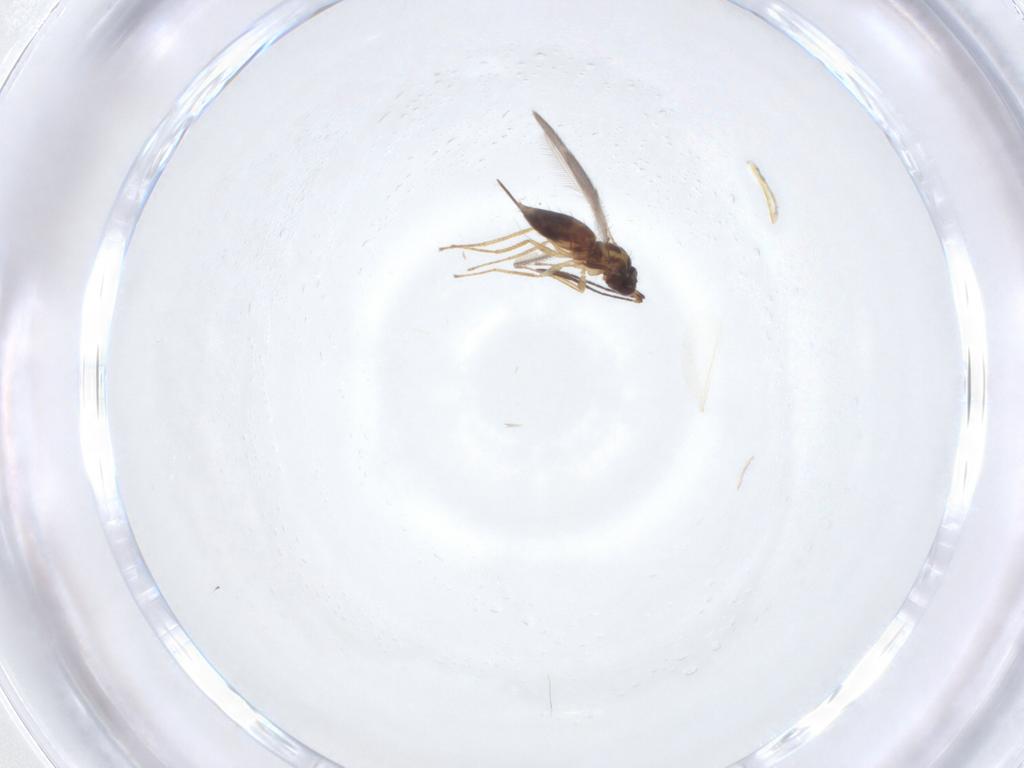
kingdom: Animalia
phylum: Arthropoda
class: Insecta
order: Diptera
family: Sciaridae
